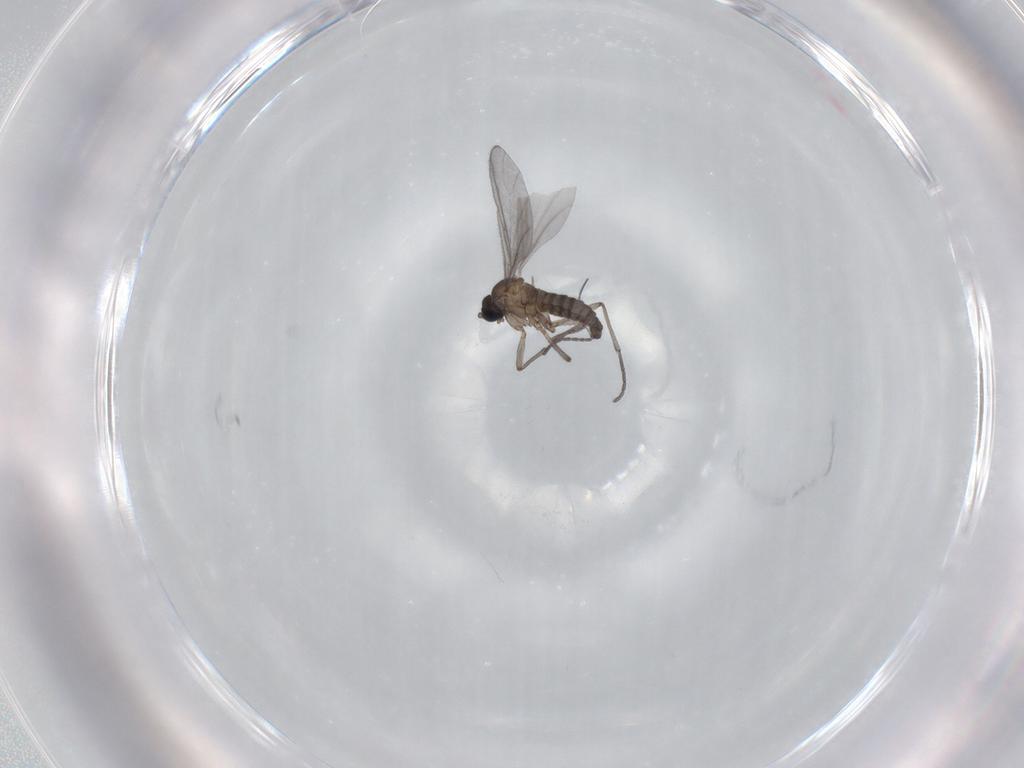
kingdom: Animalia
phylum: Arthropoda
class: Insecta
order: Diptera
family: Sciaridae
